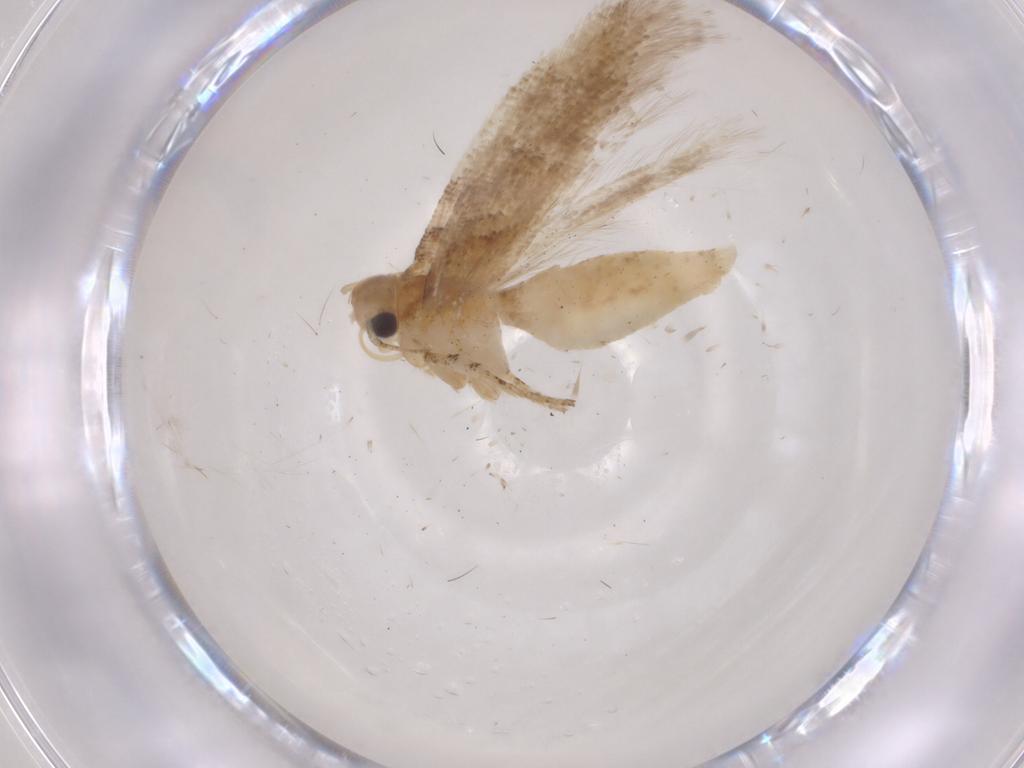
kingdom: Animalia
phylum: Arthropoda
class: Insecta
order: Lepidoptera
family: Gelechiidae
